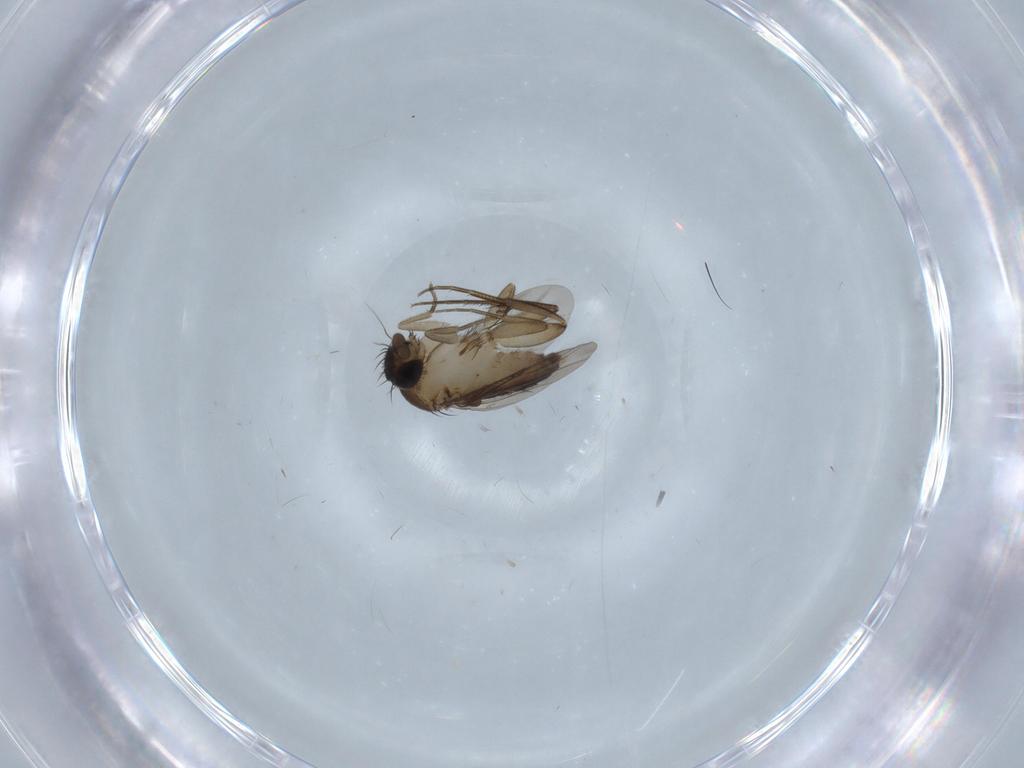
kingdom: Animalia
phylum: Arthropoda
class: Insecta
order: Diptera
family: Phoridae
